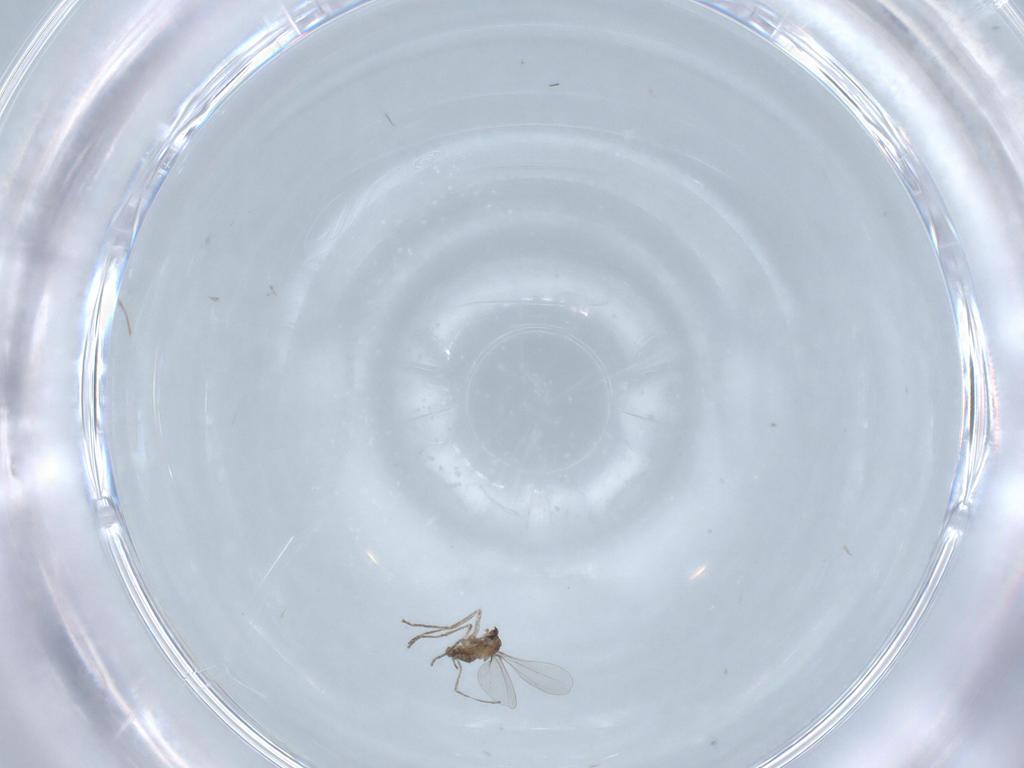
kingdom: Animalia
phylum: Arthropoda
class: Insecta
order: Diptera
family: Cecidomyiidae
